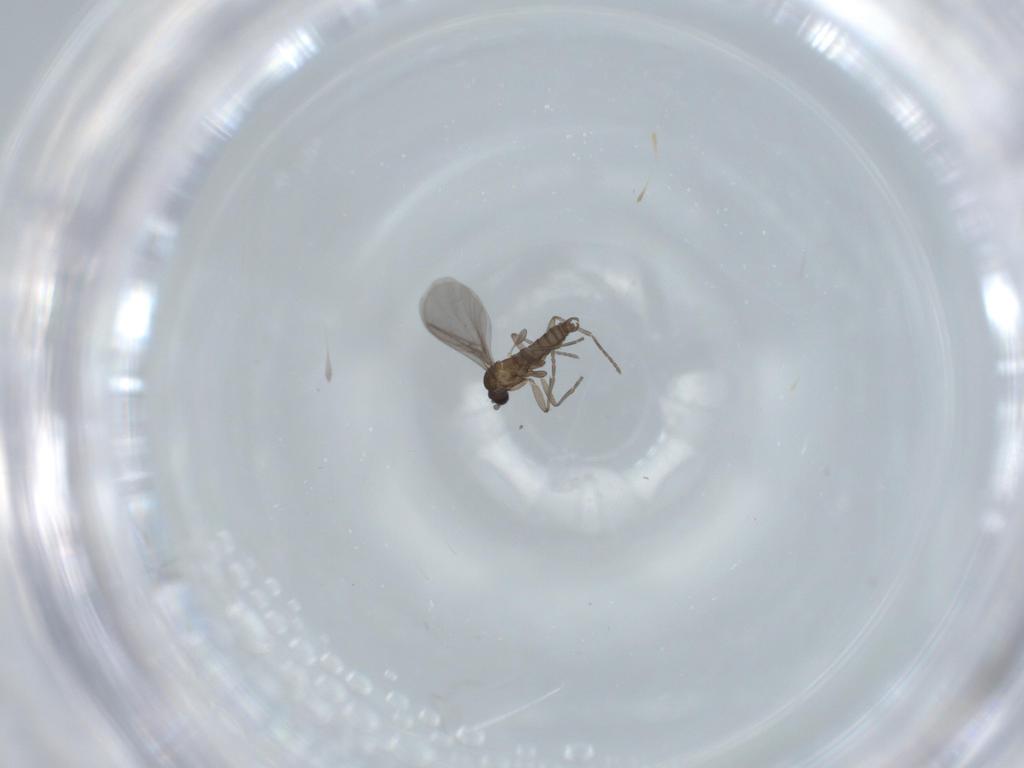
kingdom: Animalia
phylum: Arthropoda
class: Insecta
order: Diptera
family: Sciaridae
